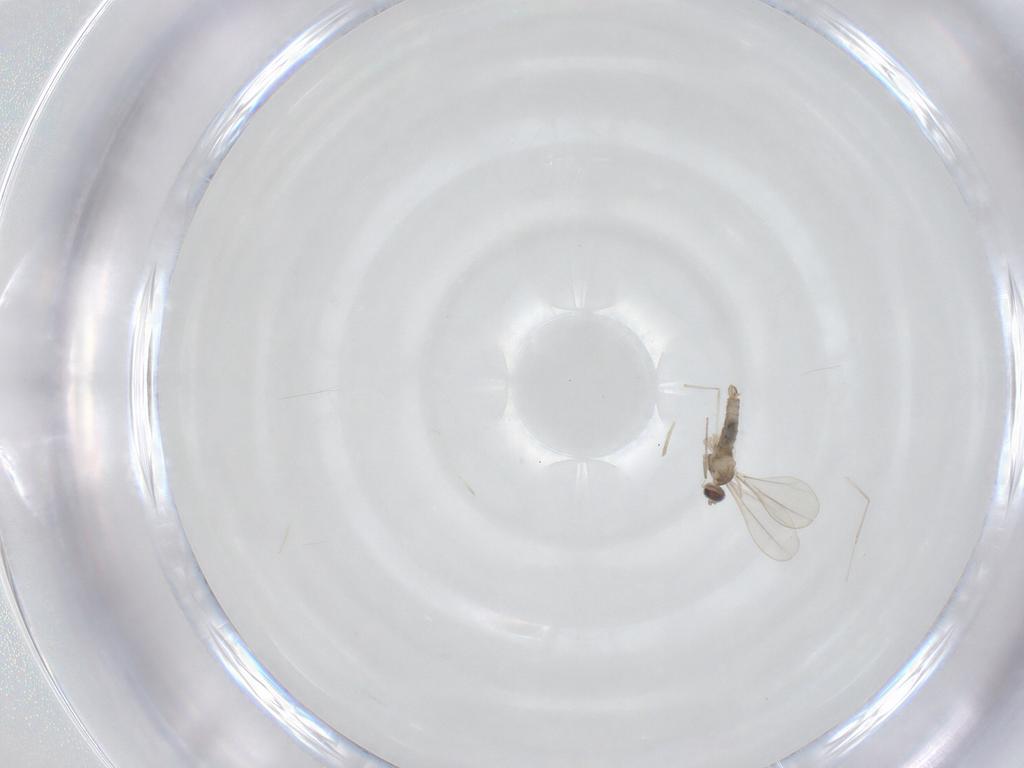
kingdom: Animalia
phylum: Arthropoda
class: Insecta
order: Diptera
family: Cecidomyiidae
